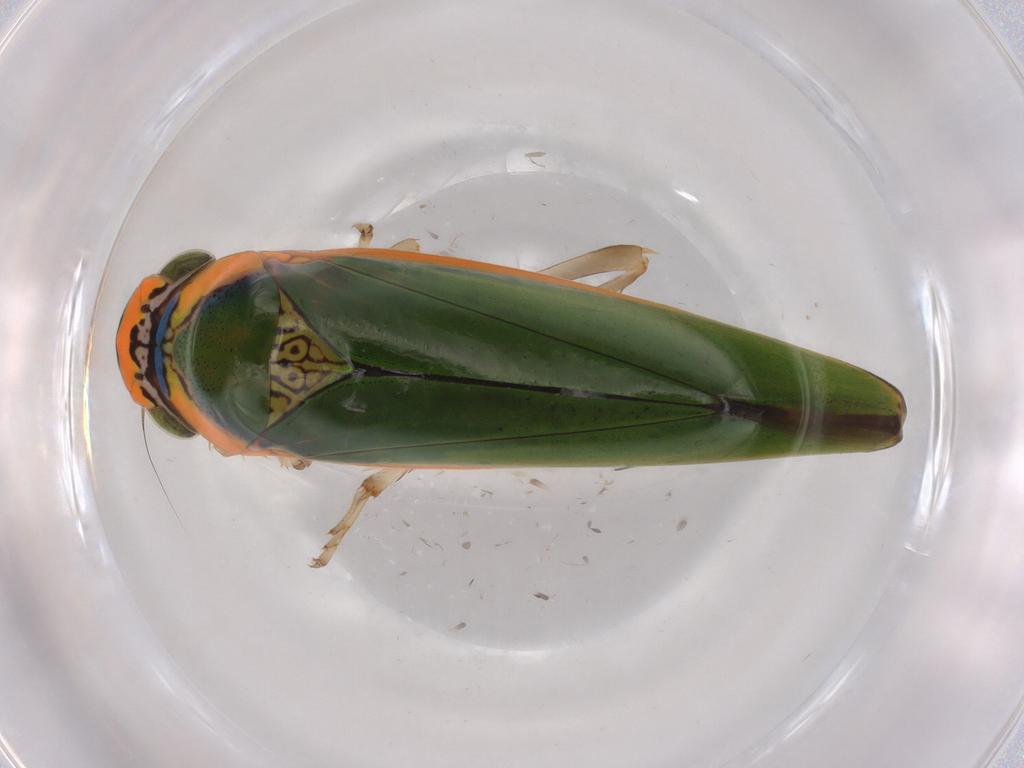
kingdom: Animalia
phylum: Arthropoda
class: Insecta
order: Hemiptera
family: Cicadellidae
